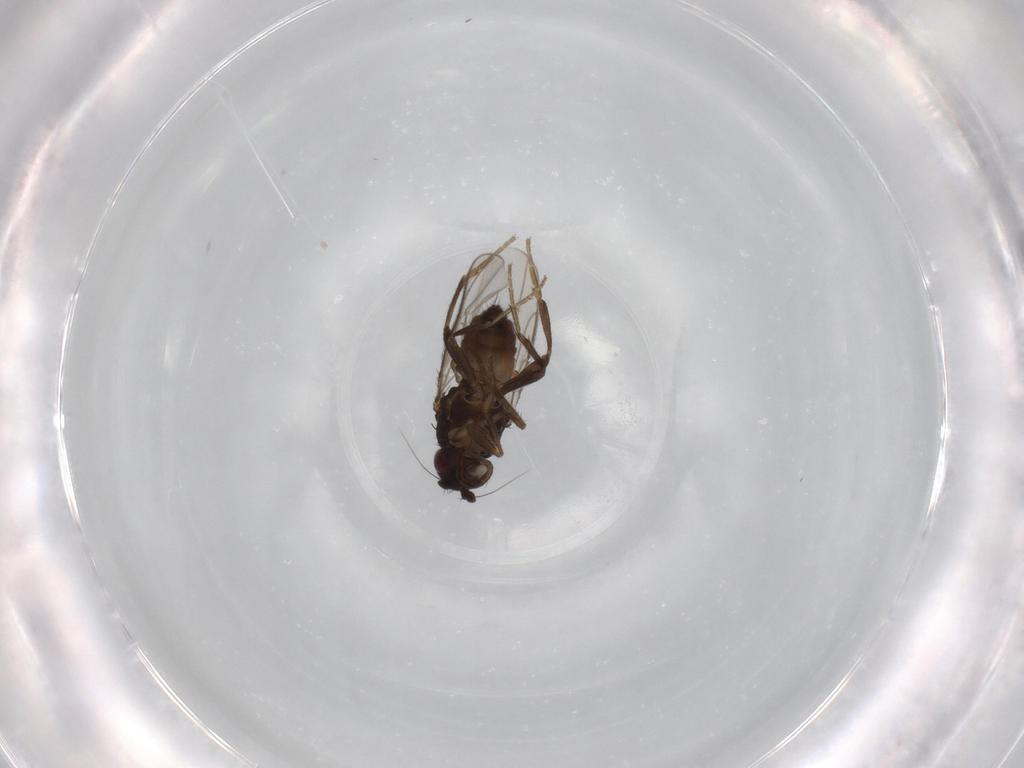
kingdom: Animalia
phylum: Arthropoda
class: Insecta
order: Diptera
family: Sphaeroceridae
